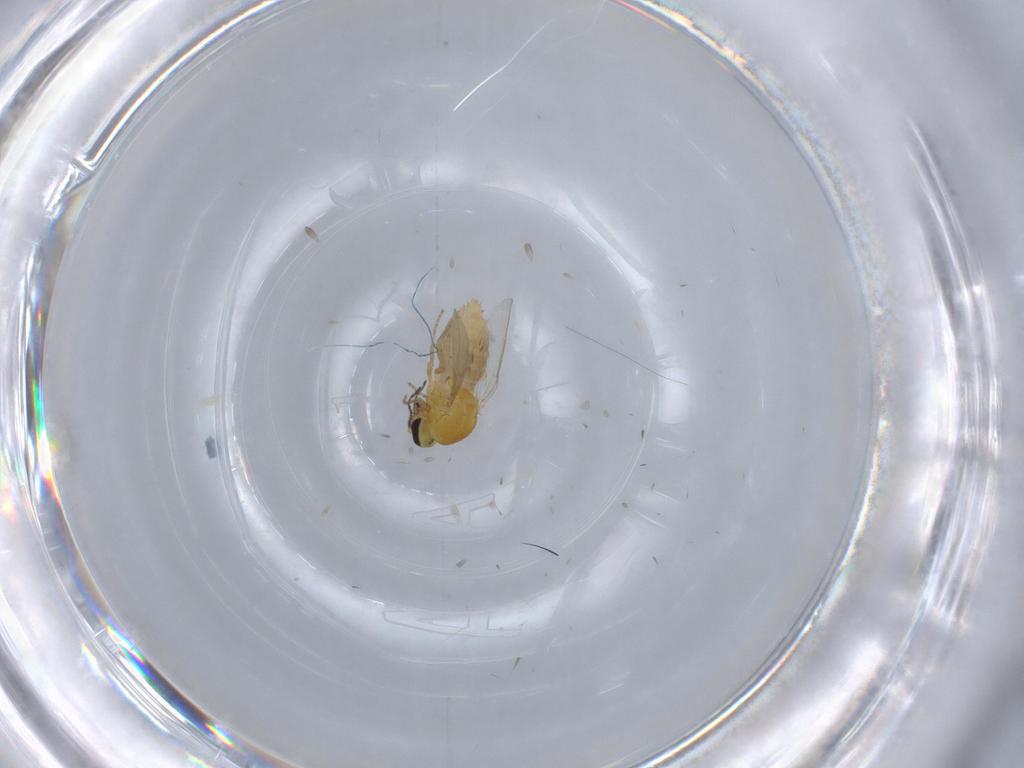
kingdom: Animalia
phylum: Arthropoda
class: Insecta
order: Diptera
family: Ceratopogonidae
